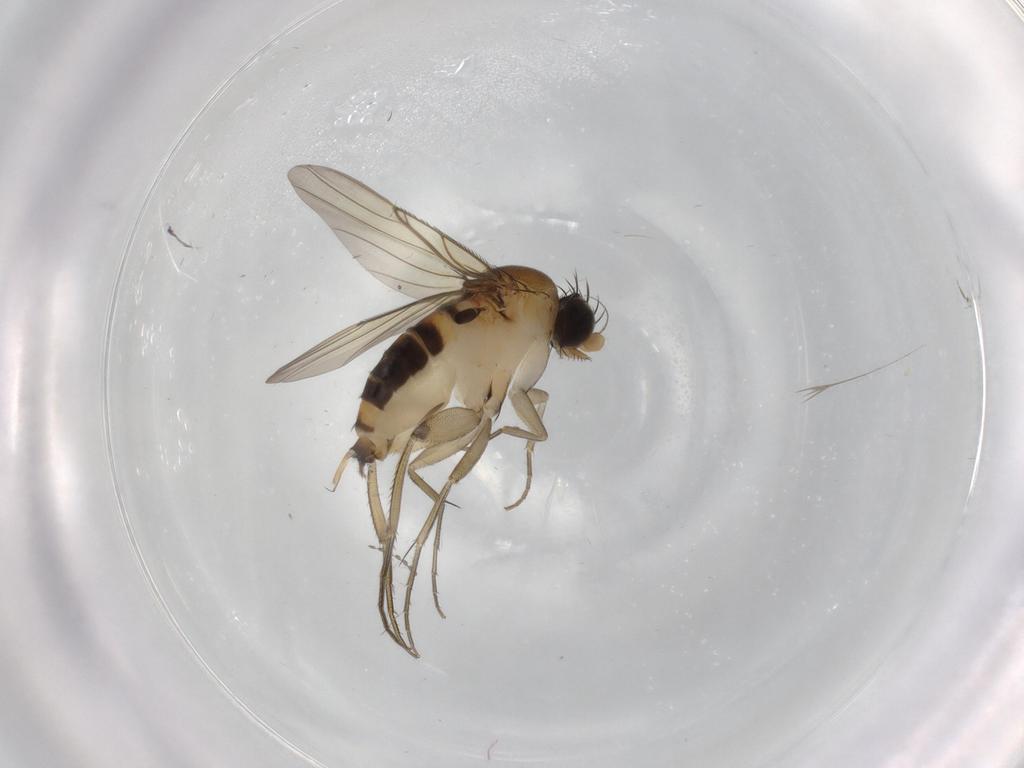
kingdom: Animalia
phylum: Arthropoda
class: Insecta
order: Diptera
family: Phoridae
